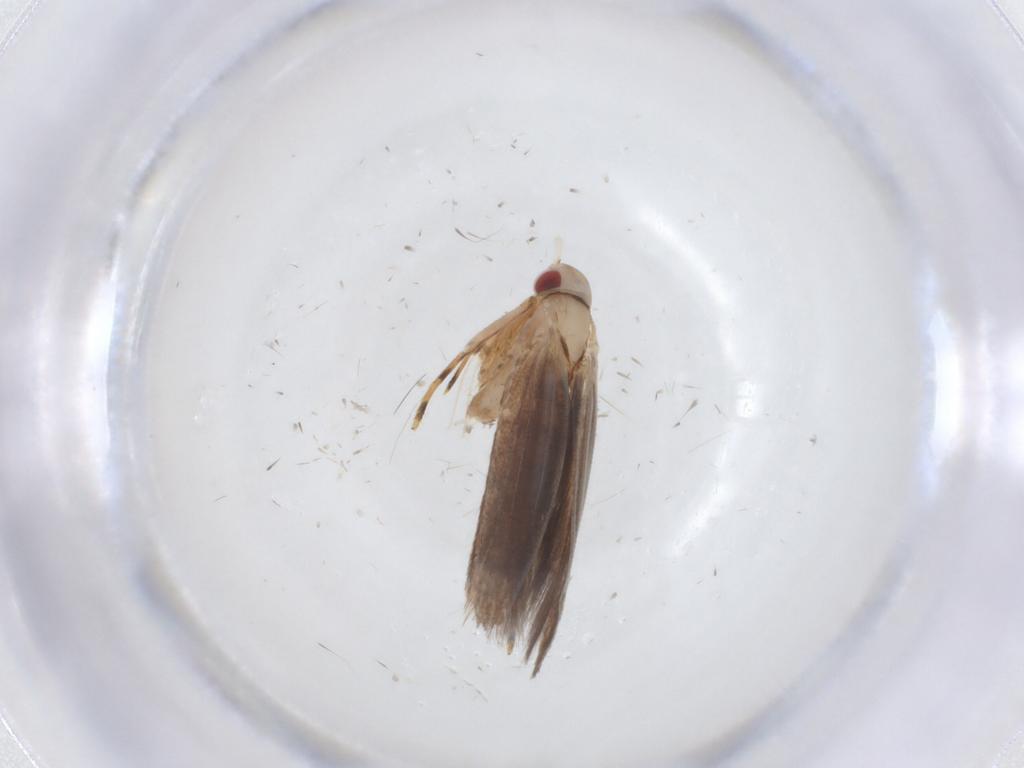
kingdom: Animalia
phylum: Arthropoda
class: Insecta
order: Lepidoptera
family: Cosmopterigidae
